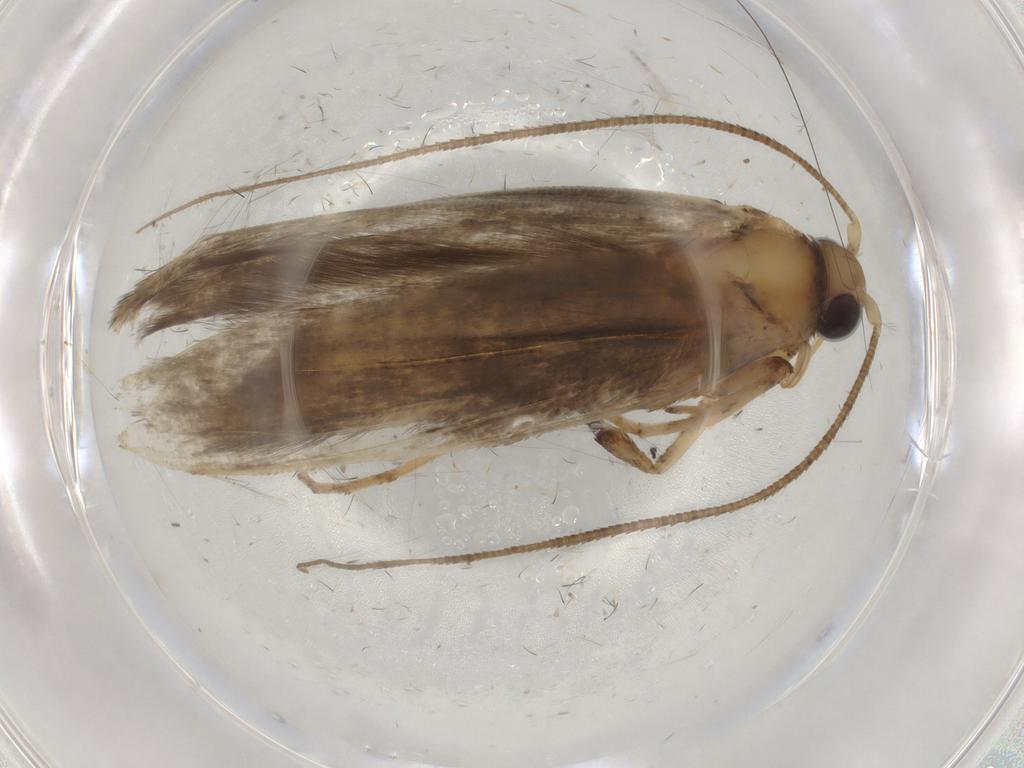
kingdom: Animalia
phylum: Arthropoda
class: Insecta
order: Lepidoptera
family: Yponomeutidae
